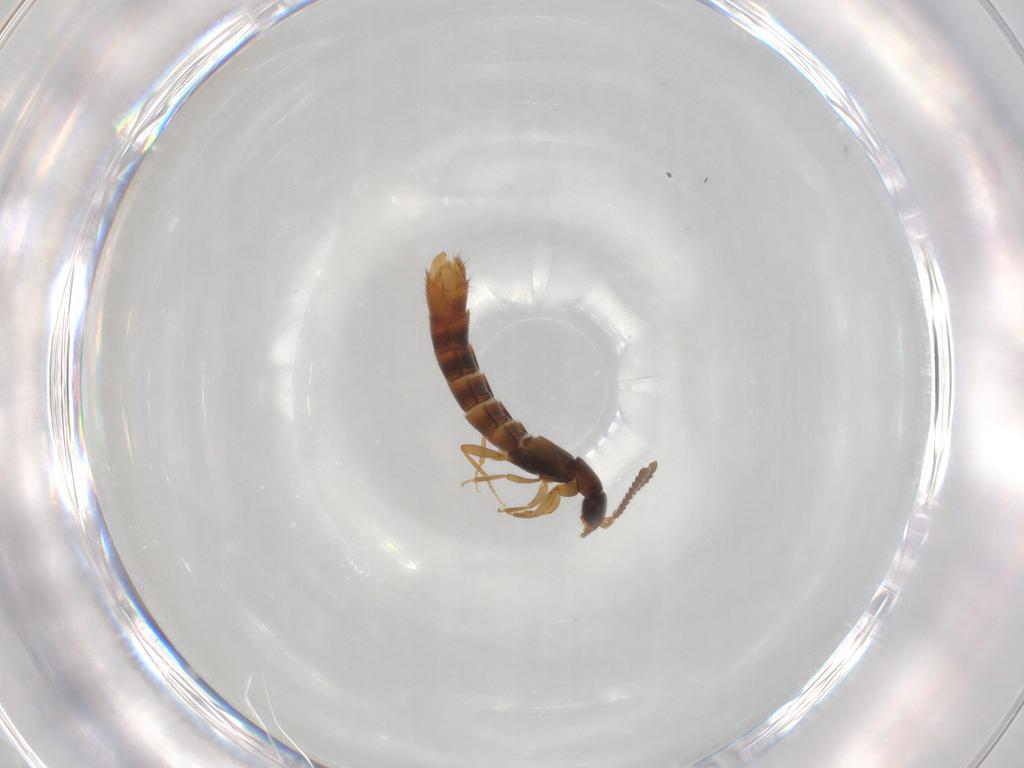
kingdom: Animalia
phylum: Arthropoda
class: Insecta
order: Coleoptera
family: Staphylinidae
